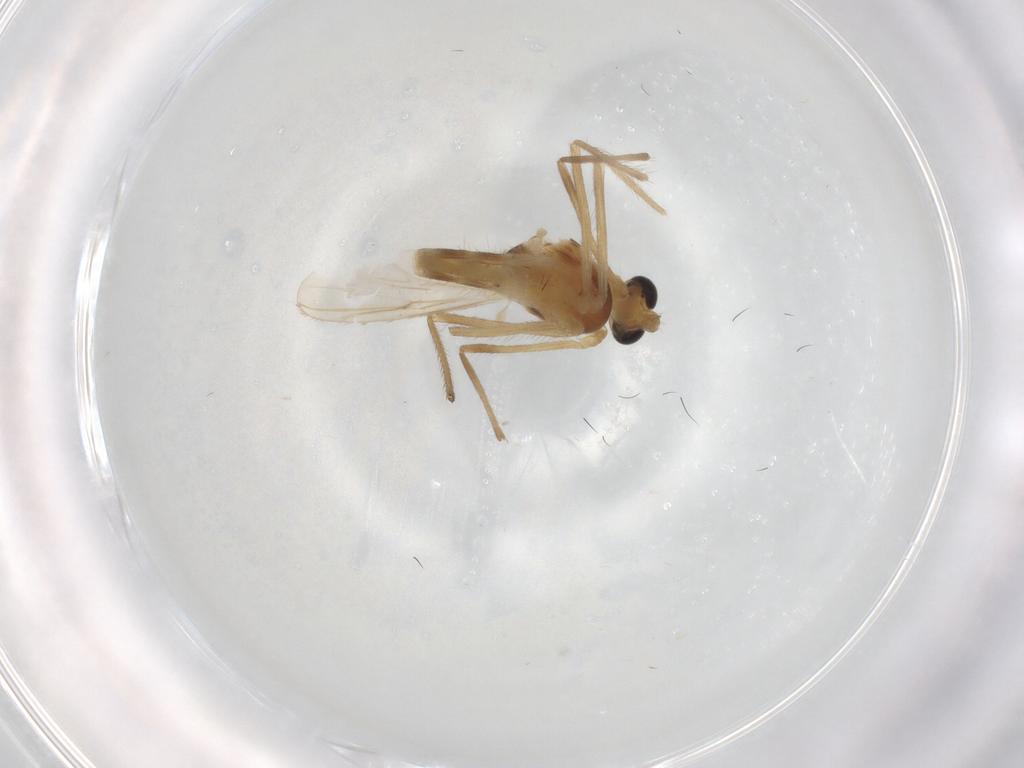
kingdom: Animalia
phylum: Arthropoda
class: Insecta
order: Diptera
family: Chironomidae
